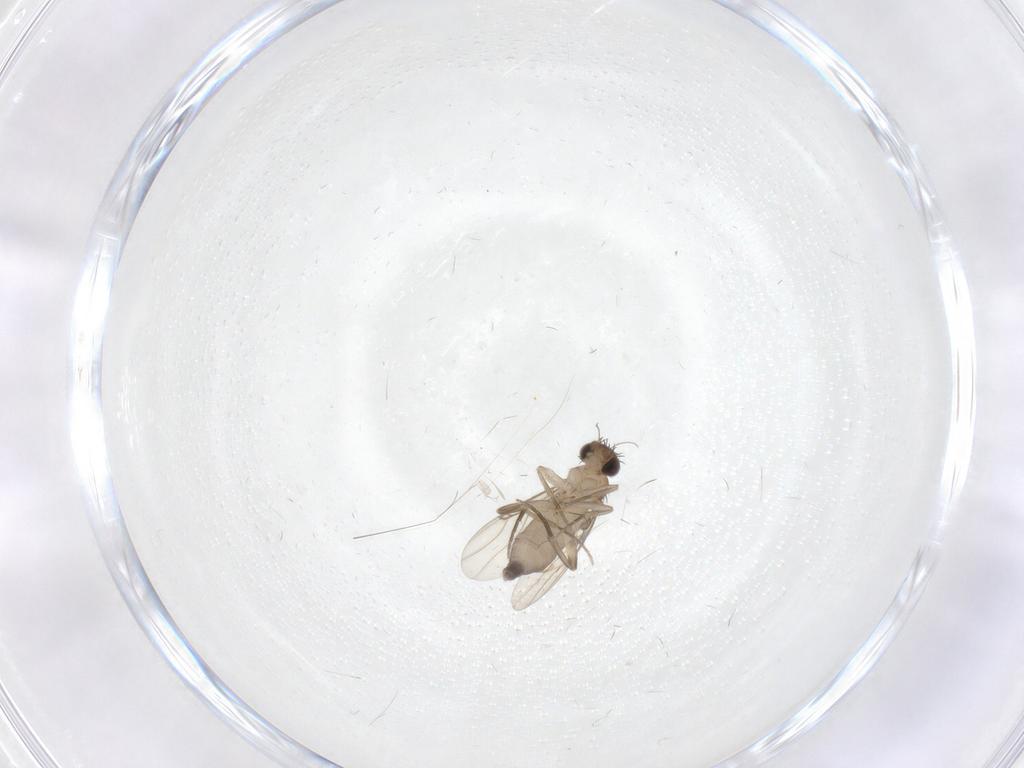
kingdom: Animalia
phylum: Arthropoda
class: Insecta
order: Diptera
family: Phoridae
